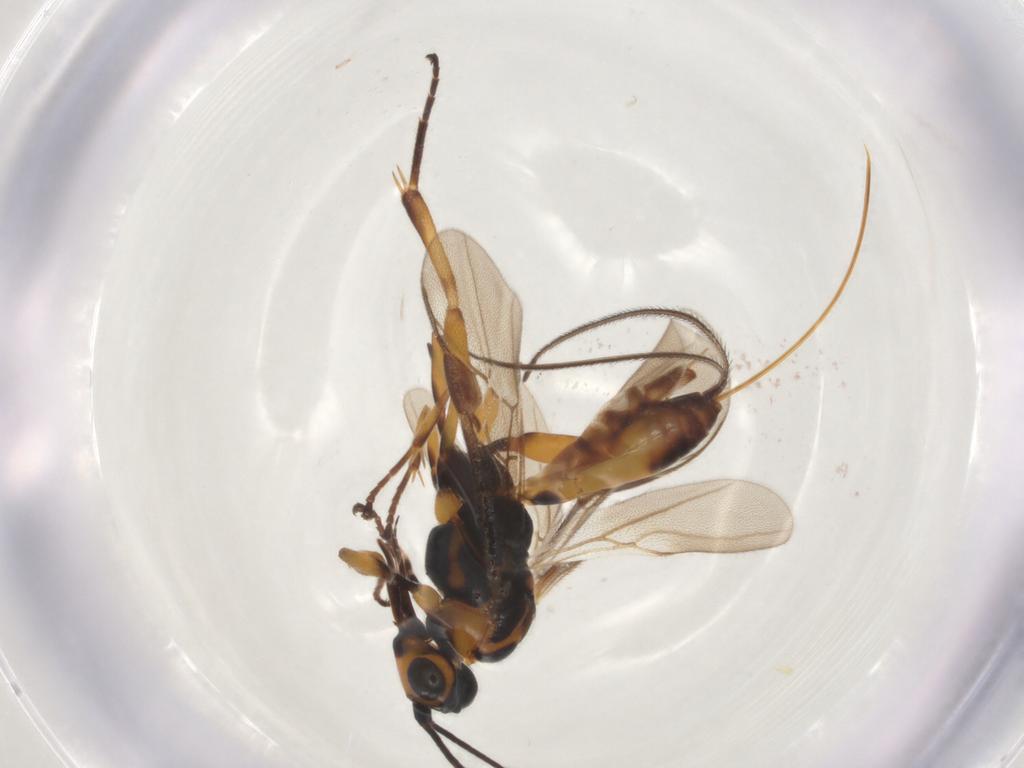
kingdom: Animalia
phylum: Arthropoda
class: Insecta
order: Hymenoptera
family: Braconidae
